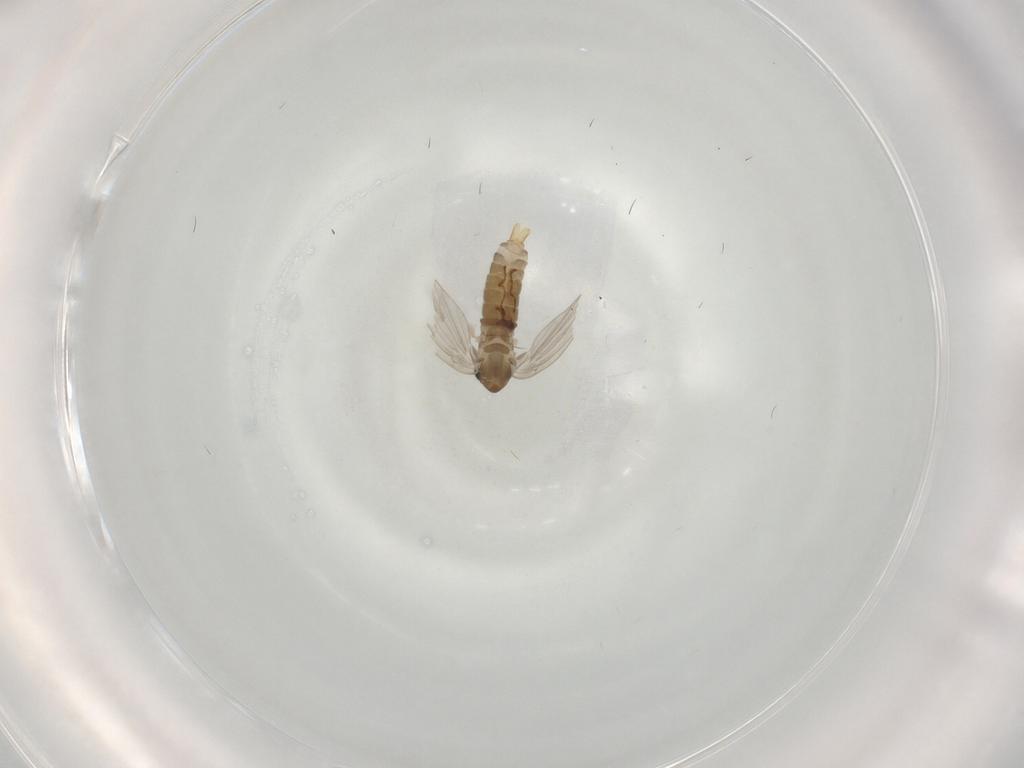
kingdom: Animalia
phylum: Arthropoda
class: Insecta
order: Diptera
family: Psychodidae
